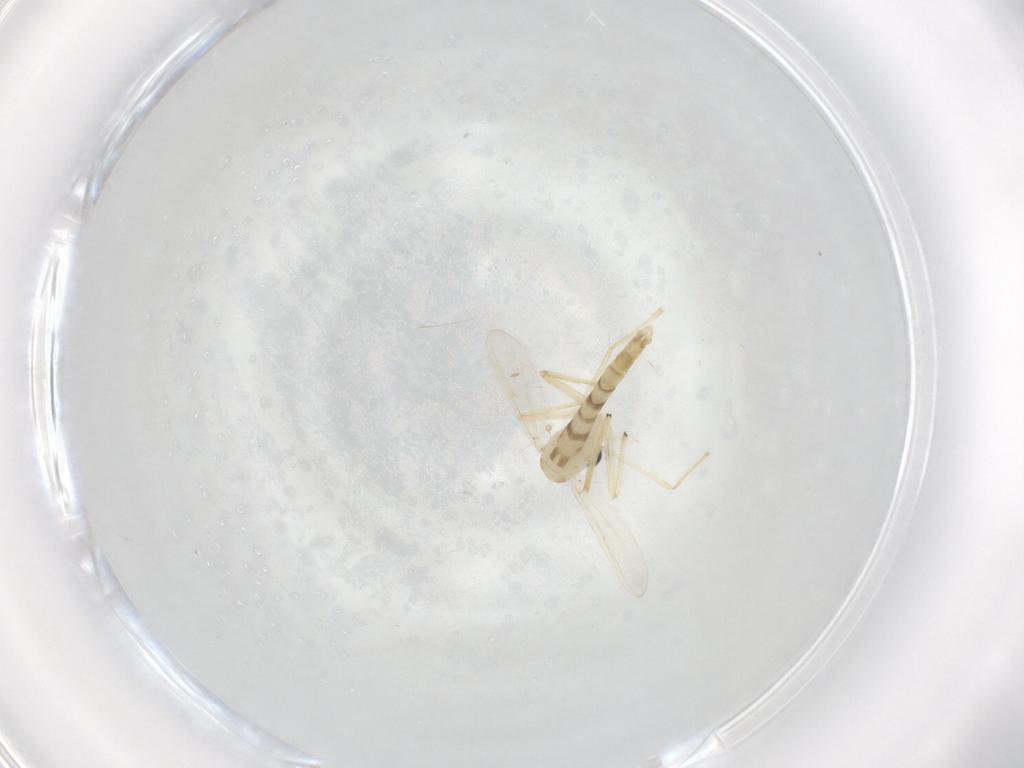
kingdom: Animalia
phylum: Arthropoda
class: Insecta
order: Diptera
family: Chironomidae
